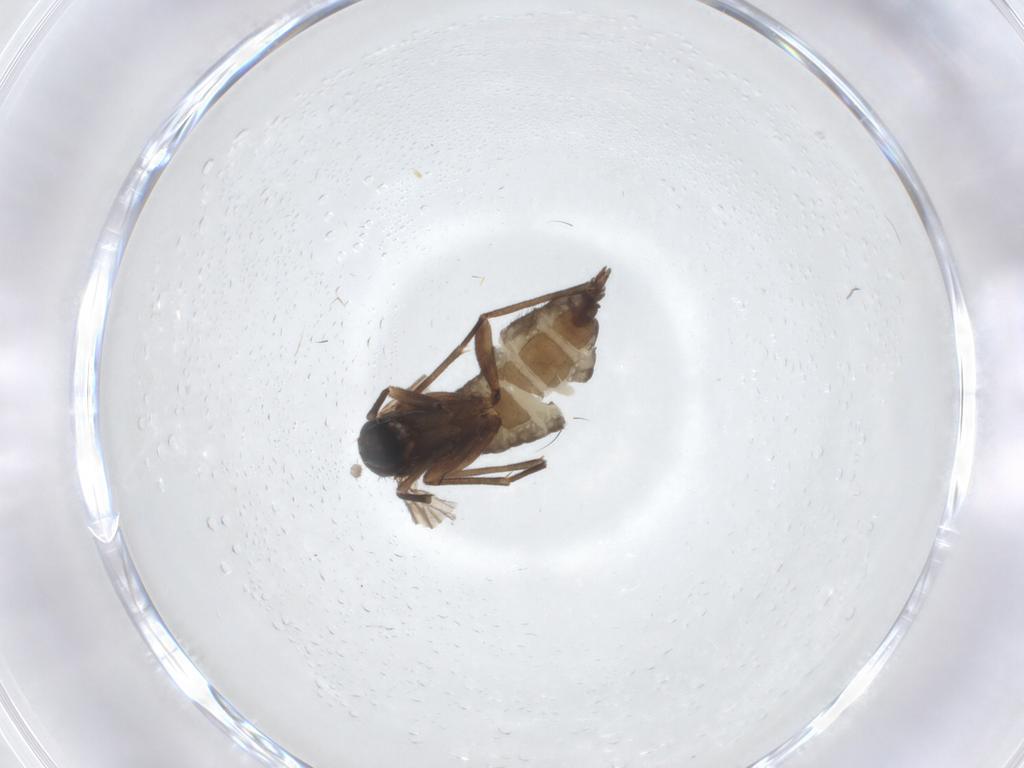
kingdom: Animalia
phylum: Arthropoda
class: Insecta
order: Diptera
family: Sciaridae
